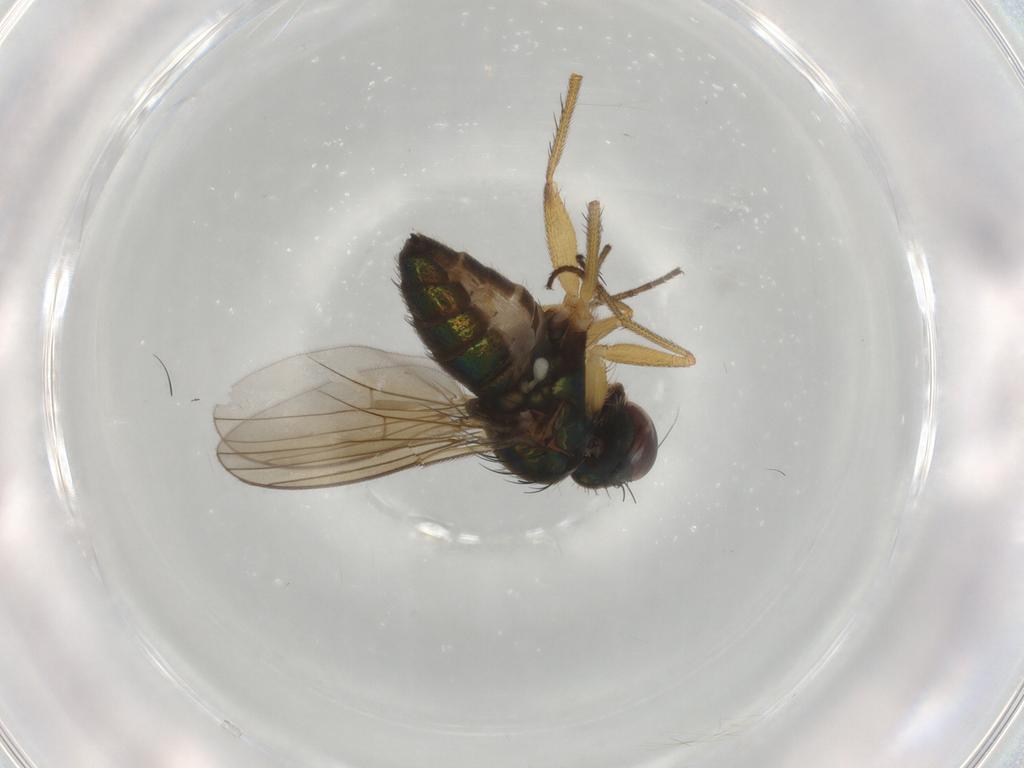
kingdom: Animalia
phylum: Arthropoda
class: Insecta
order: Diptera
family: Dolichopodidae
